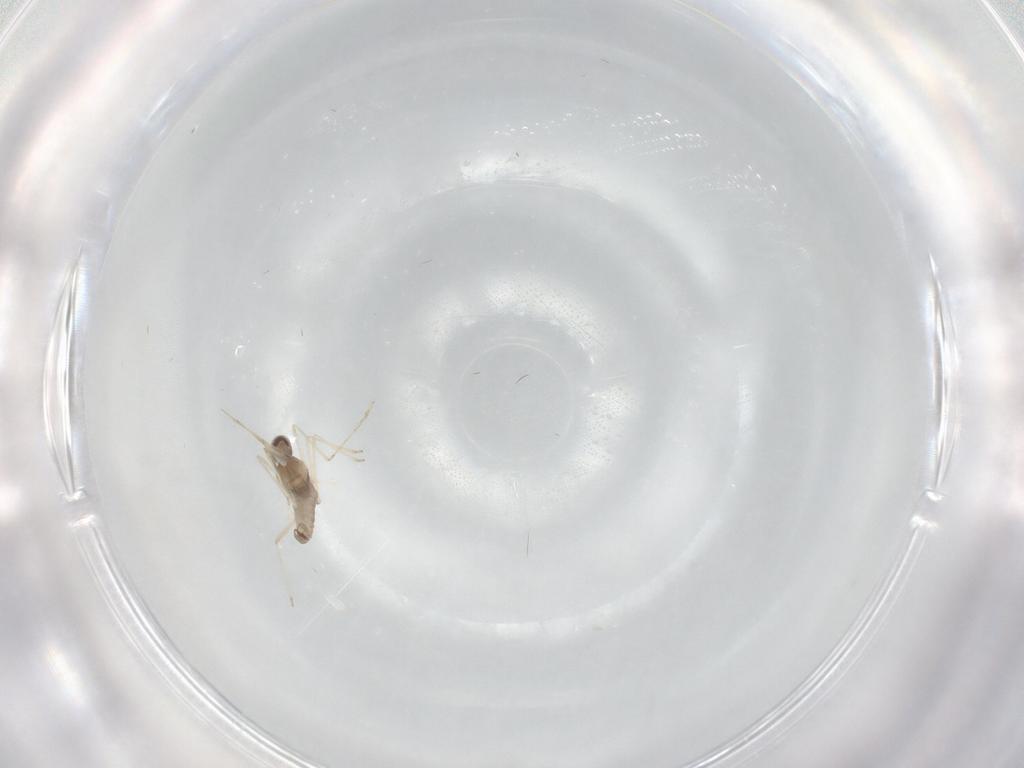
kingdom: Animalia
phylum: Arthropoda
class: Insecta
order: Diptera
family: Cecidomyiidae
